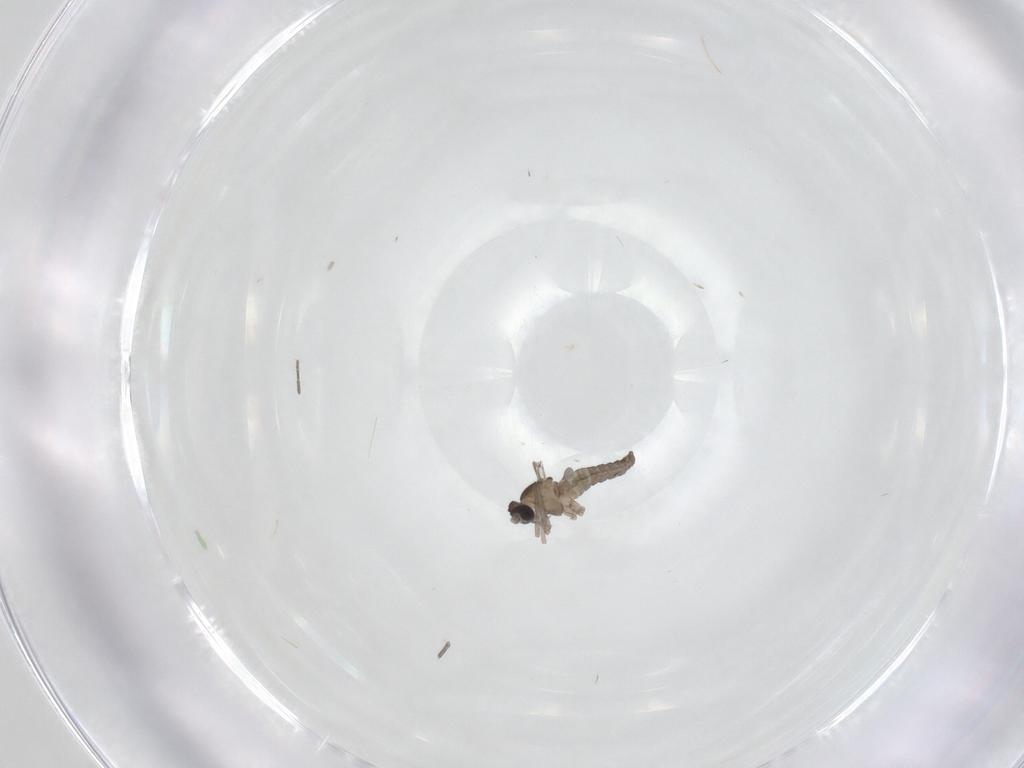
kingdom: Animalia
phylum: Arthropoda
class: Insecta
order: Diptera
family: Cecidomyiidae
